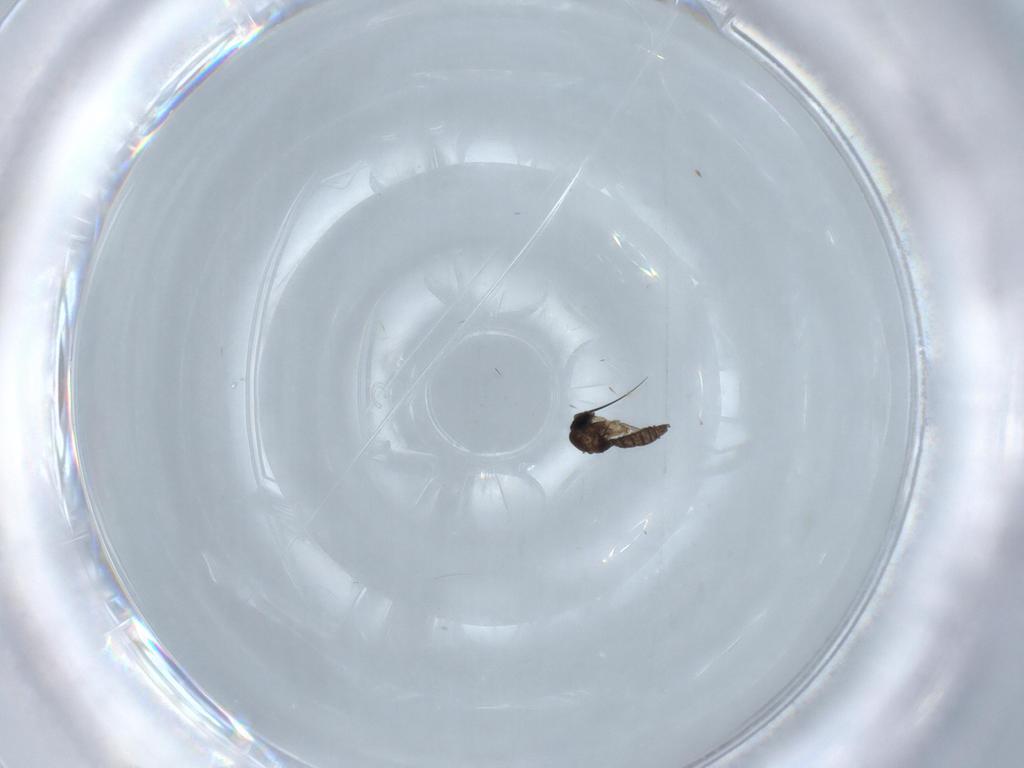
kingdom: Animalia
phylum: Arthropoda
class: Insecta
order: Diptera
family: Sciaridae
